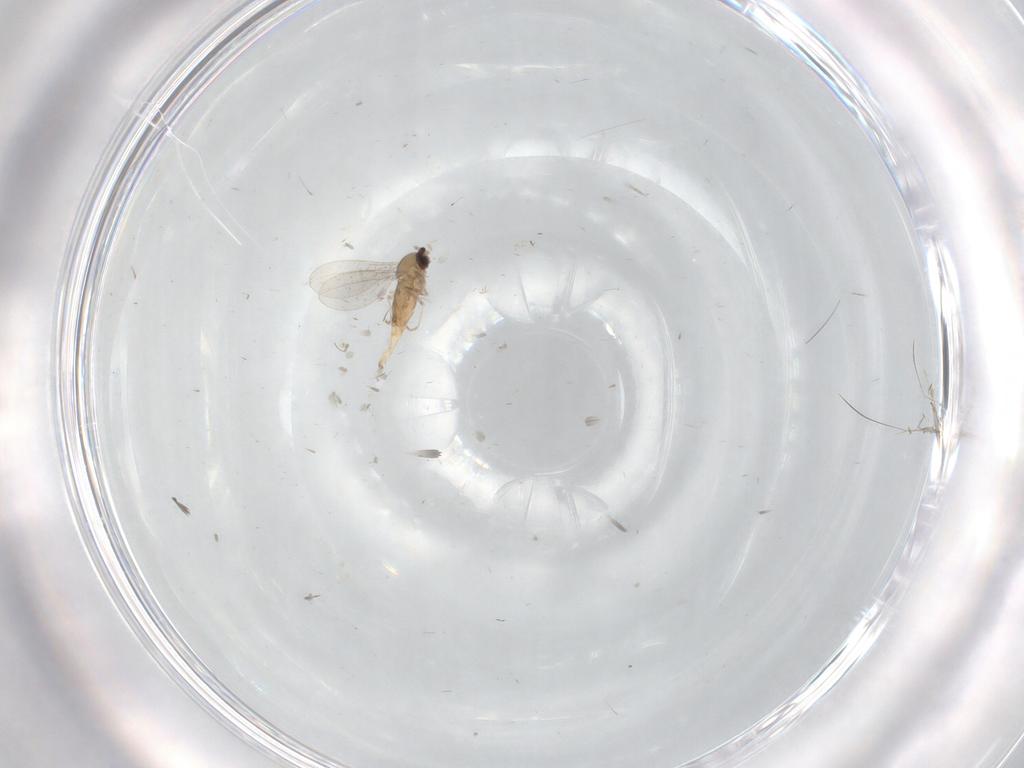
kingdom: Animalia
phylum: Arthropoda
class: Insecta
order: Diptera
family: Cecidomyiidae
